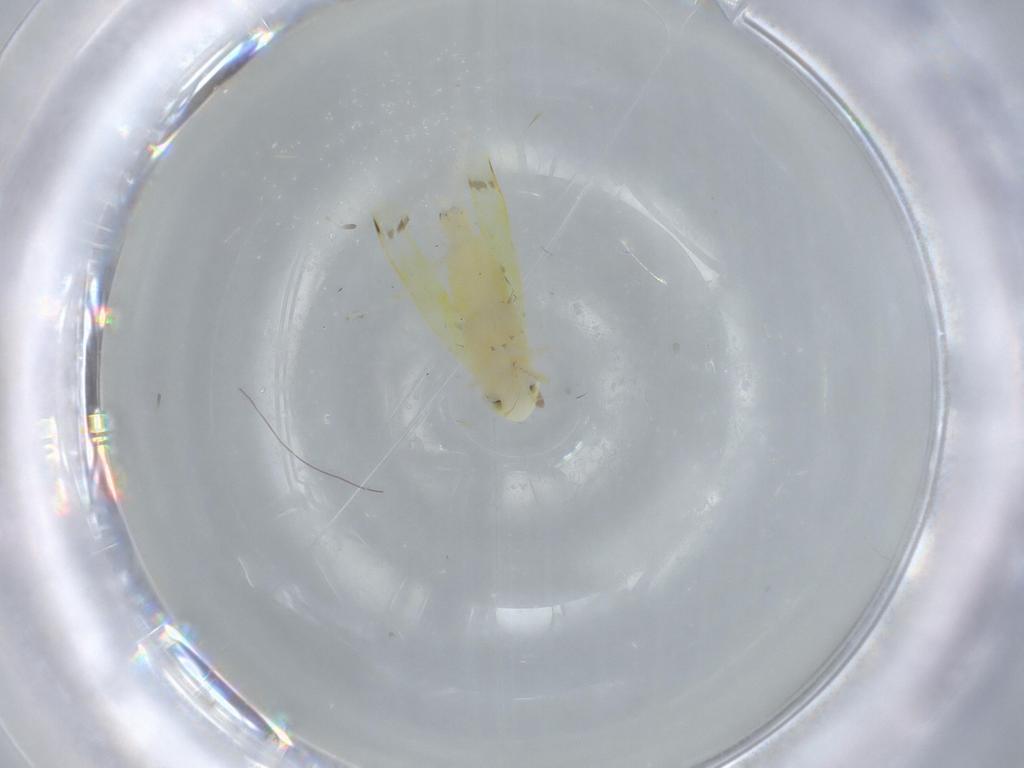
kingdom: Animalia
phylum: Arthropoda
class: Insecta
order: Hemiptera
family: Cicadellidae
